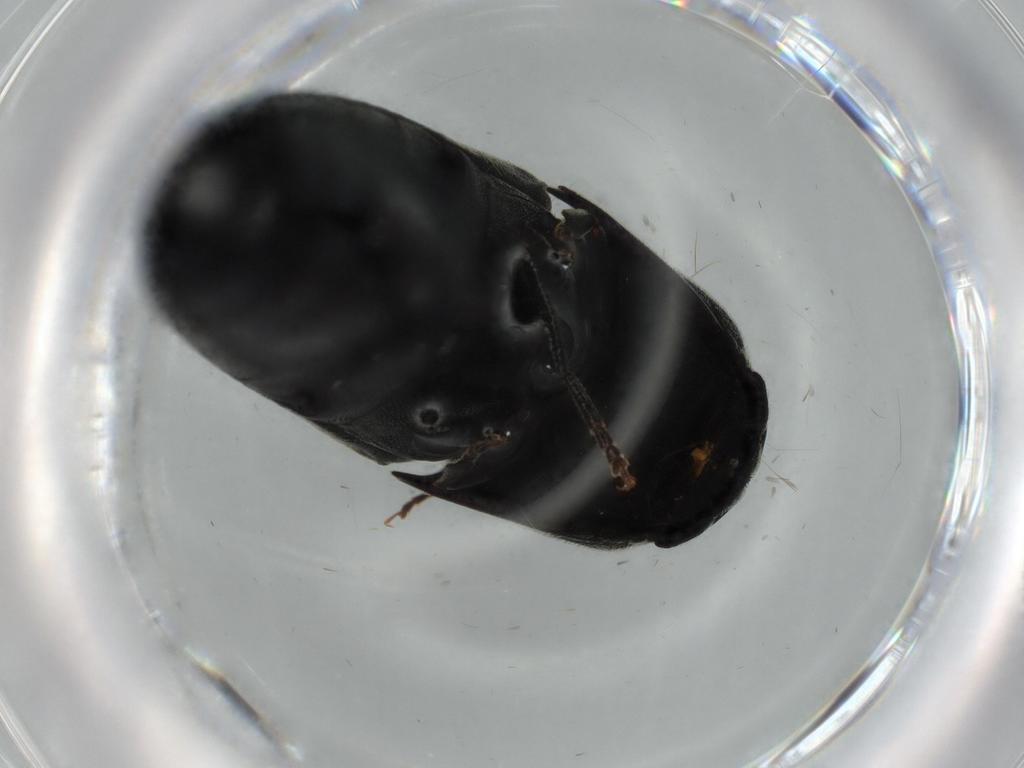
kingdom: Animalia
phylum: Arthropoda
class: Insecta
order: Coleoptera
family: Eucnemidae
